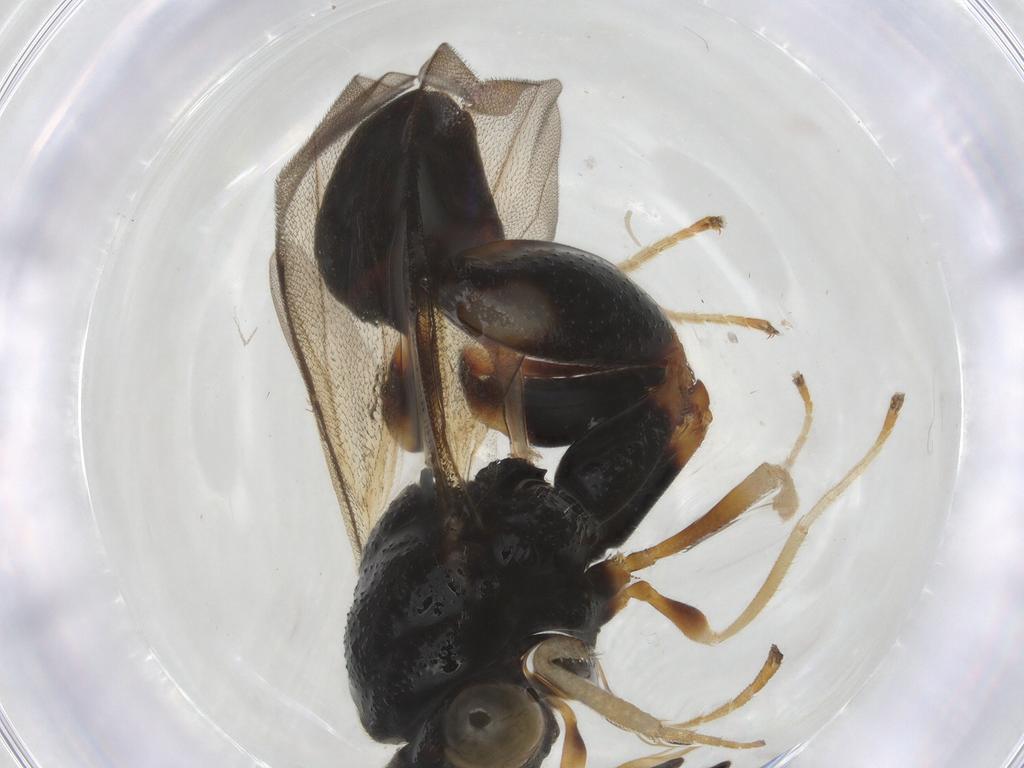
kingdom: Animalia
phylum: Arthropoda
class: Insecta
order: Hymenoptera
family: Chalcididae
